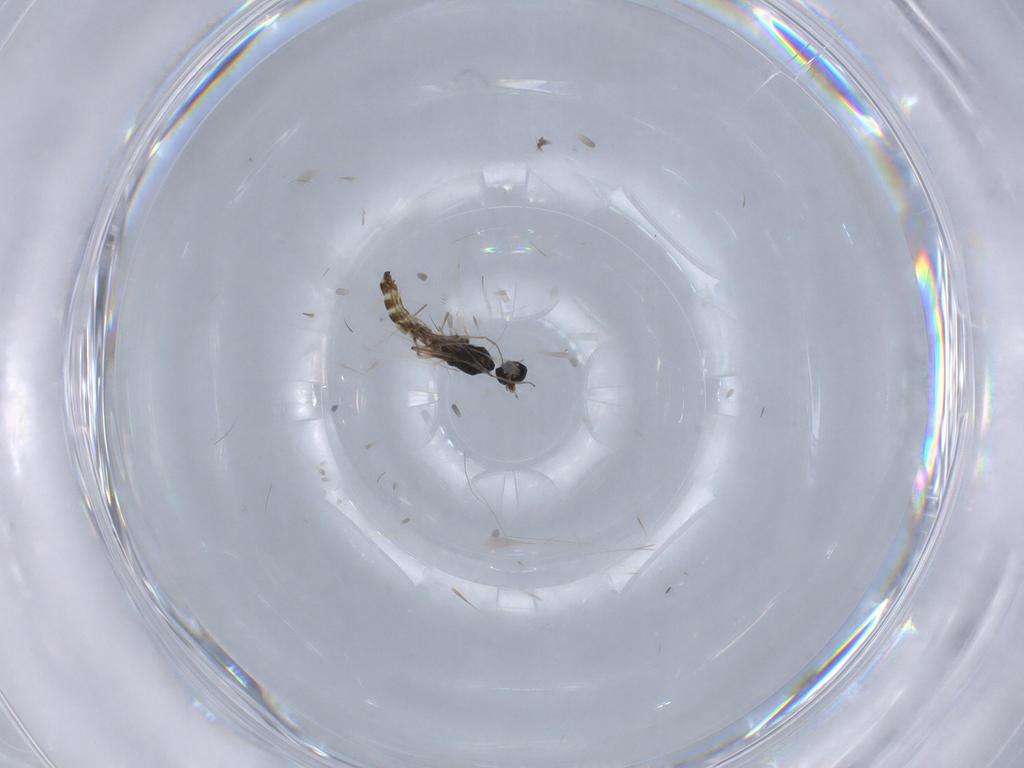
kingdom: Animalia
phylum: Arthropoda
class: Insecta
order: Diptera
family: Chironomidae
